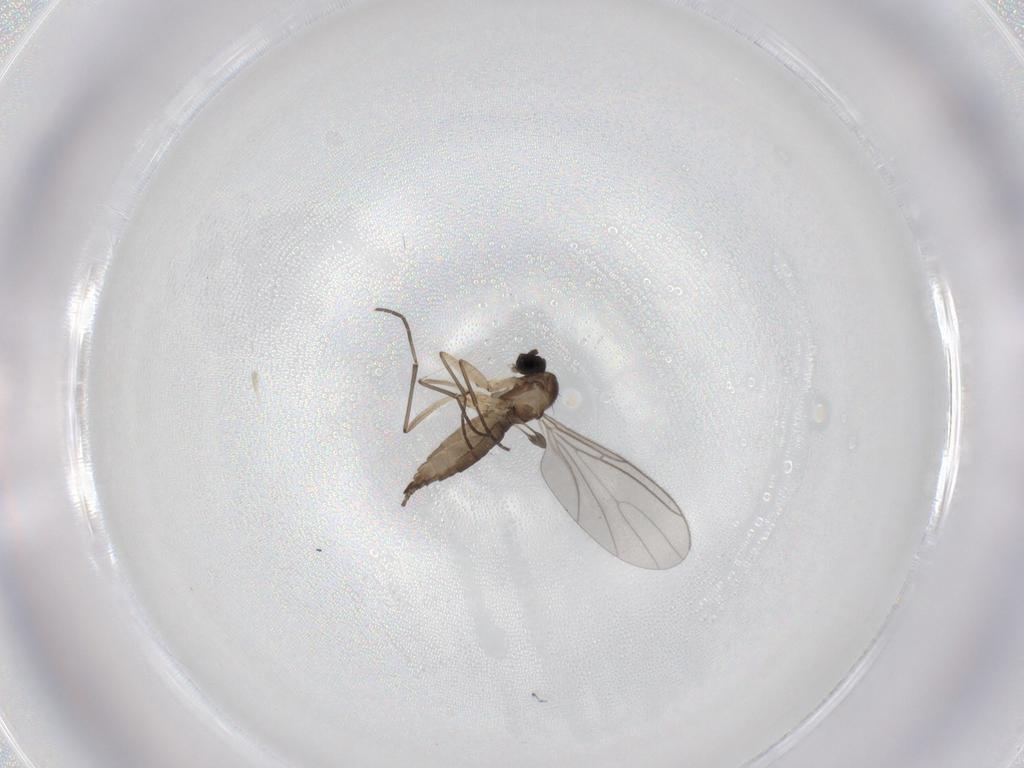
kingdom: Animalia
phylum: Arthropoda
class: Insecta
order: Diptera
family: Sciaridae
